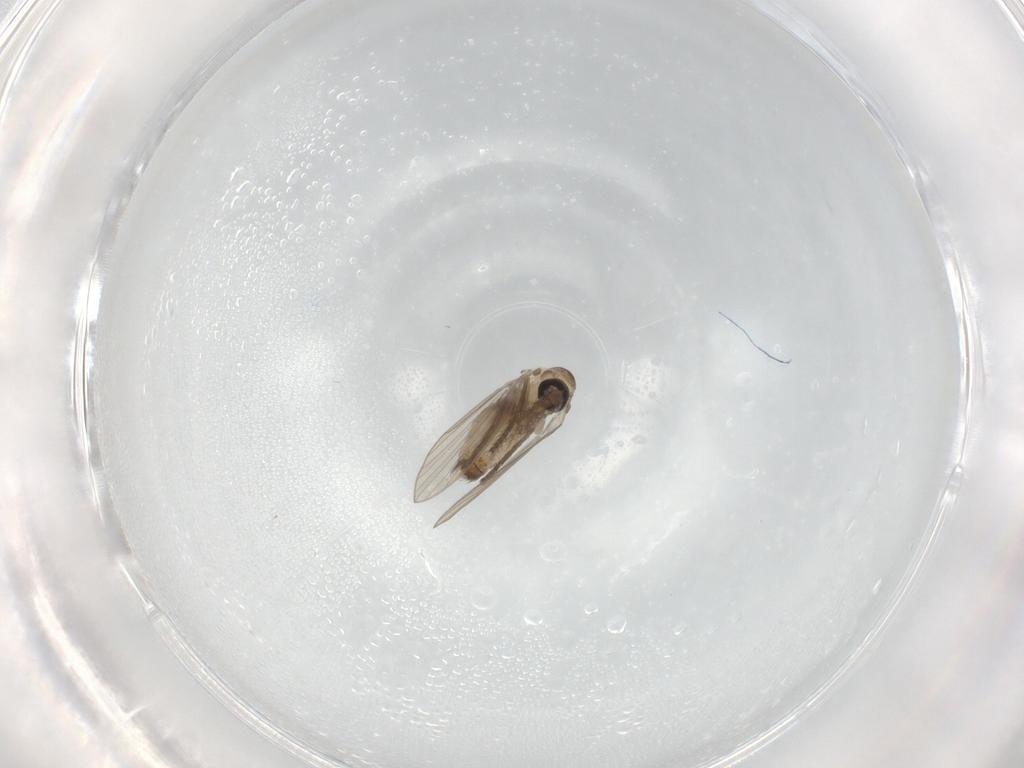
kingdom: Animalia
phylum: Arthropoda
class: Insecta
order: Diptera
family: Psychodidae
